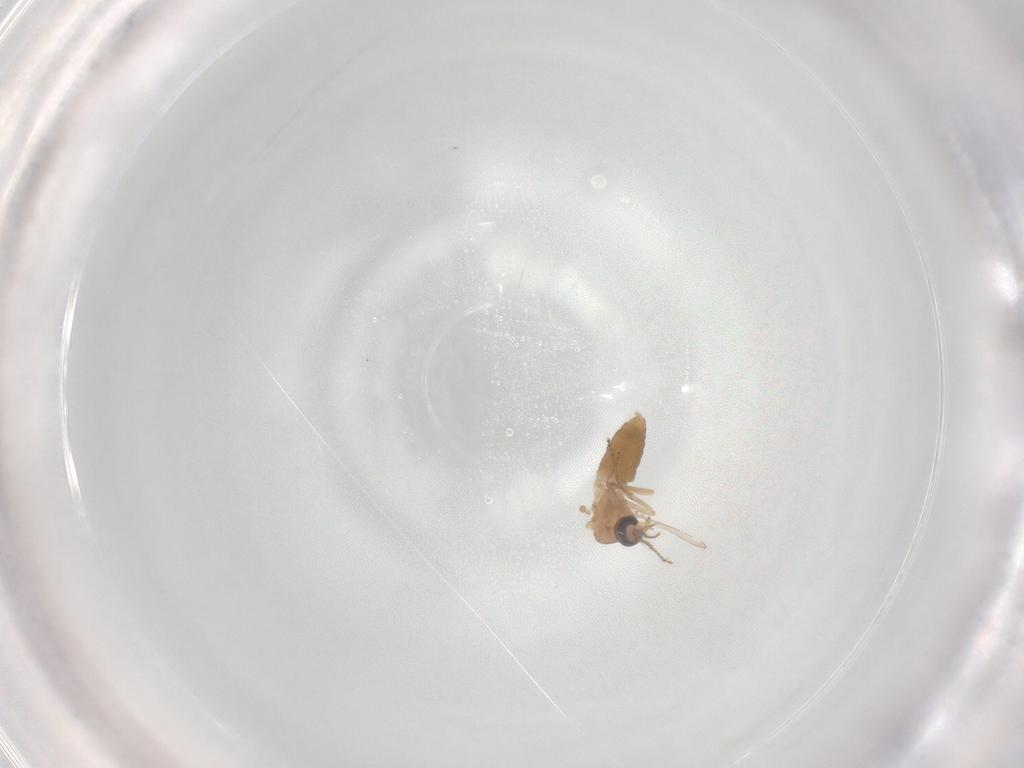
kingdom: Animalia
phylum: Arthropoda
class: Insecta
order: Diptera
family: Ceratopogonidae
